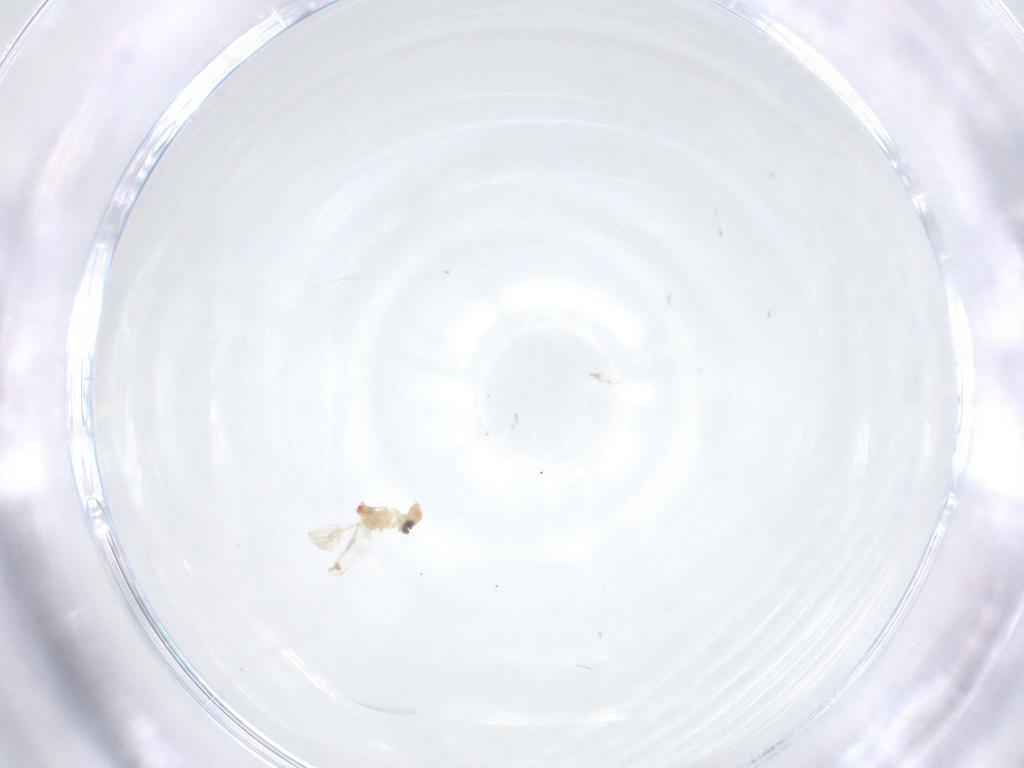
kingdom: Animalia
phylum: Arthropoda
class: Insecta
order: Diptera
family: Cecidomyiidae
